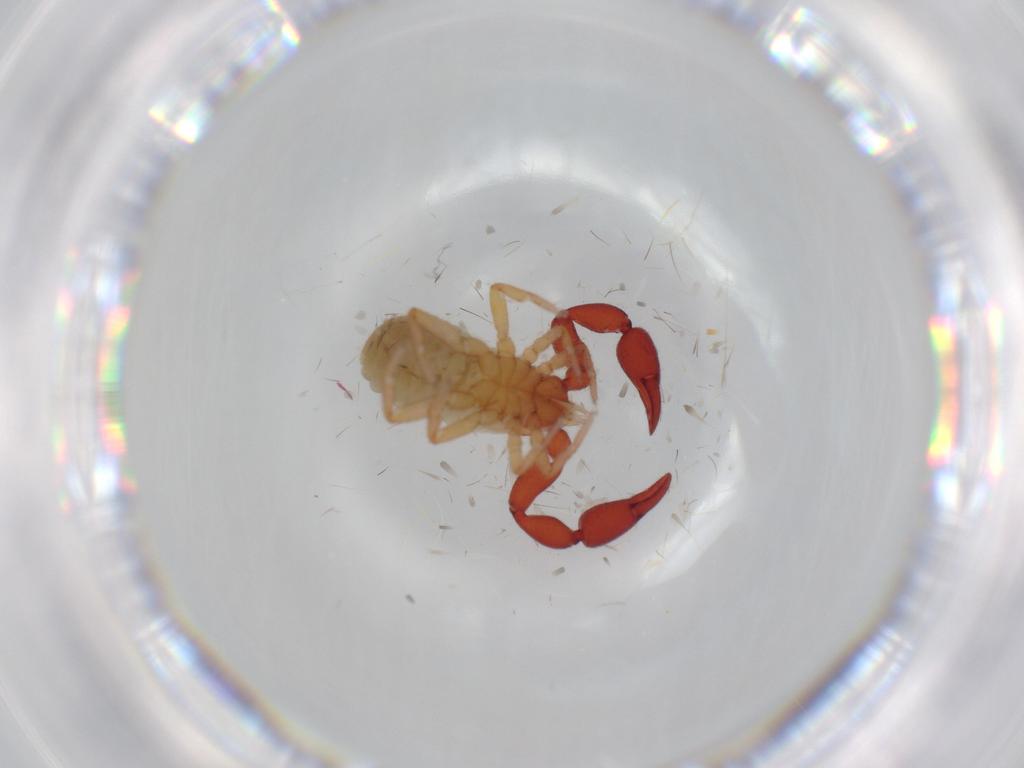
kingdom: Animalia
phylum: Arthropoda
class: Arachnida
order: Pseudoscorpiones
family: Chernetidae
